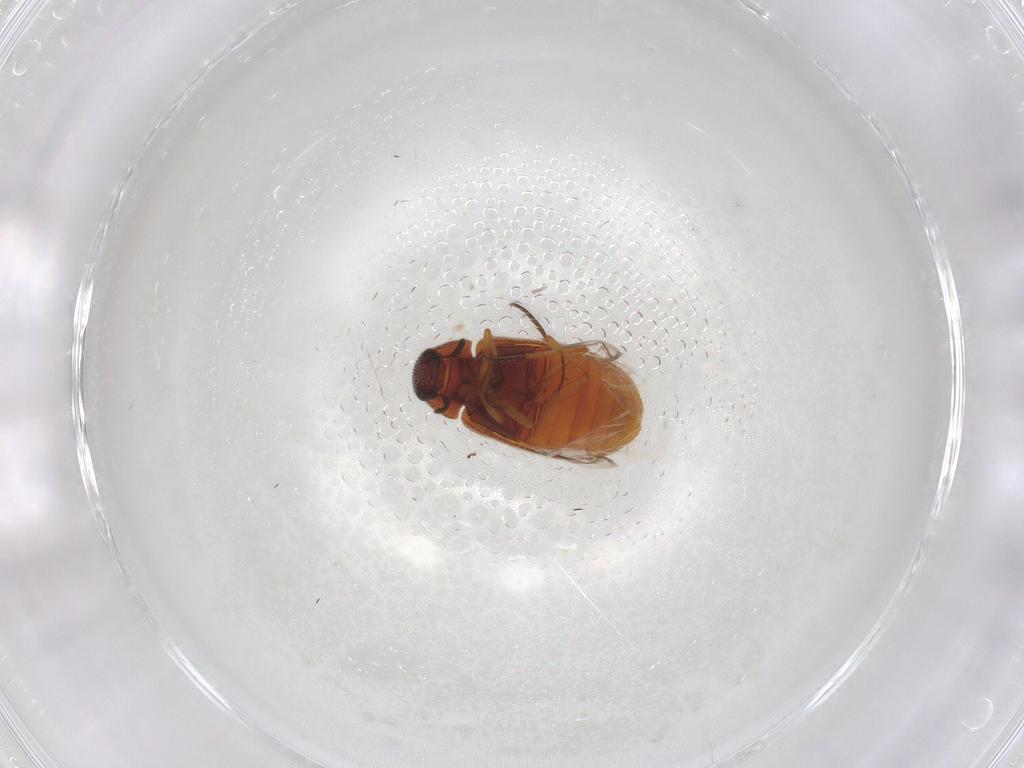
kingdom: Animalia
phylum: Arthropoda
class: Insecta
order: Coleoptera
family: Rhadalidae
